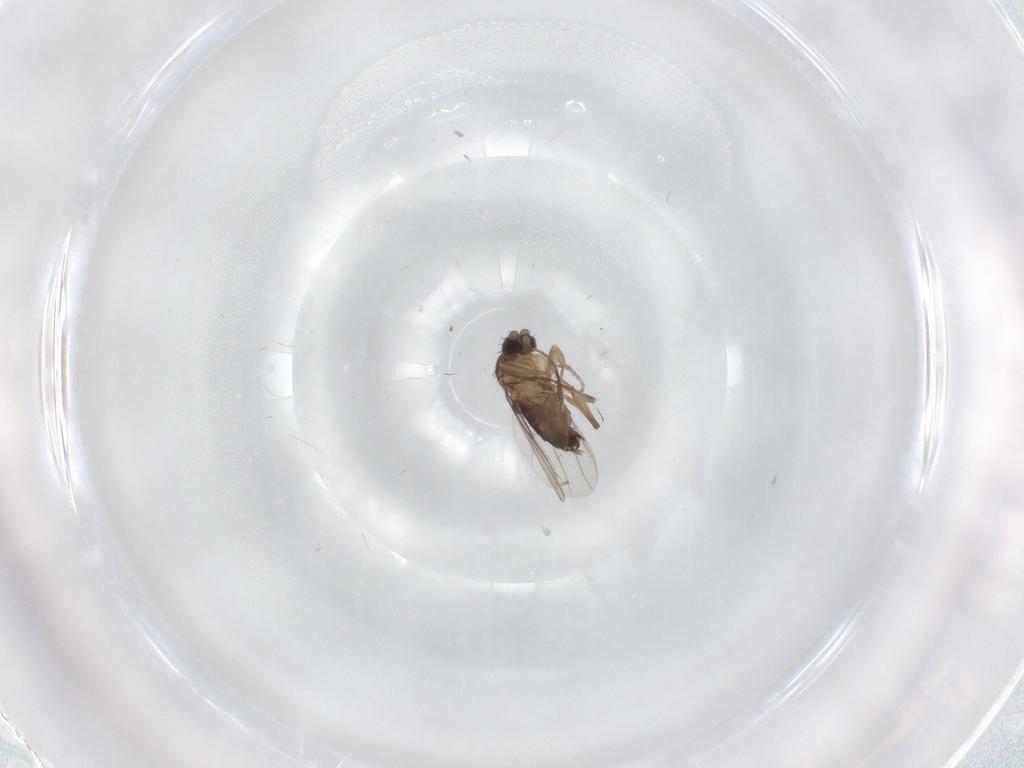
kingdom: Animalia
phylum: Arthropoda
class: Insecta
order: Diptera
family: Phoridae
